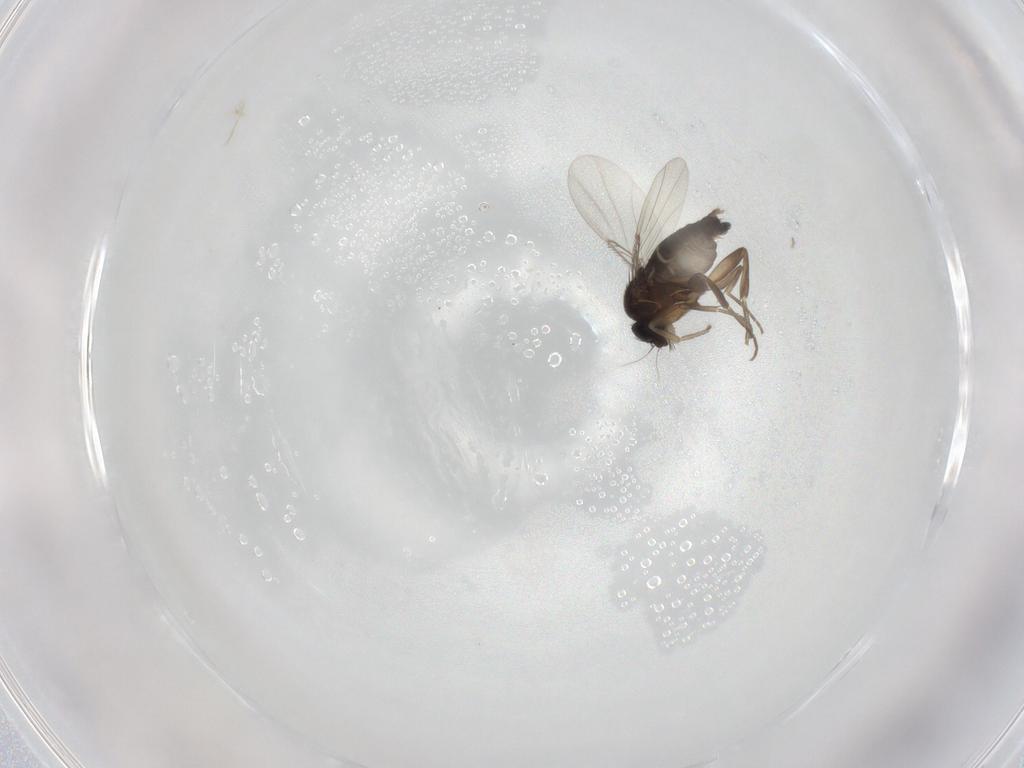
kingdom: Animalia
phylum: Arthropoda
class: Insecta
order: Diptera
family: Phoridae
